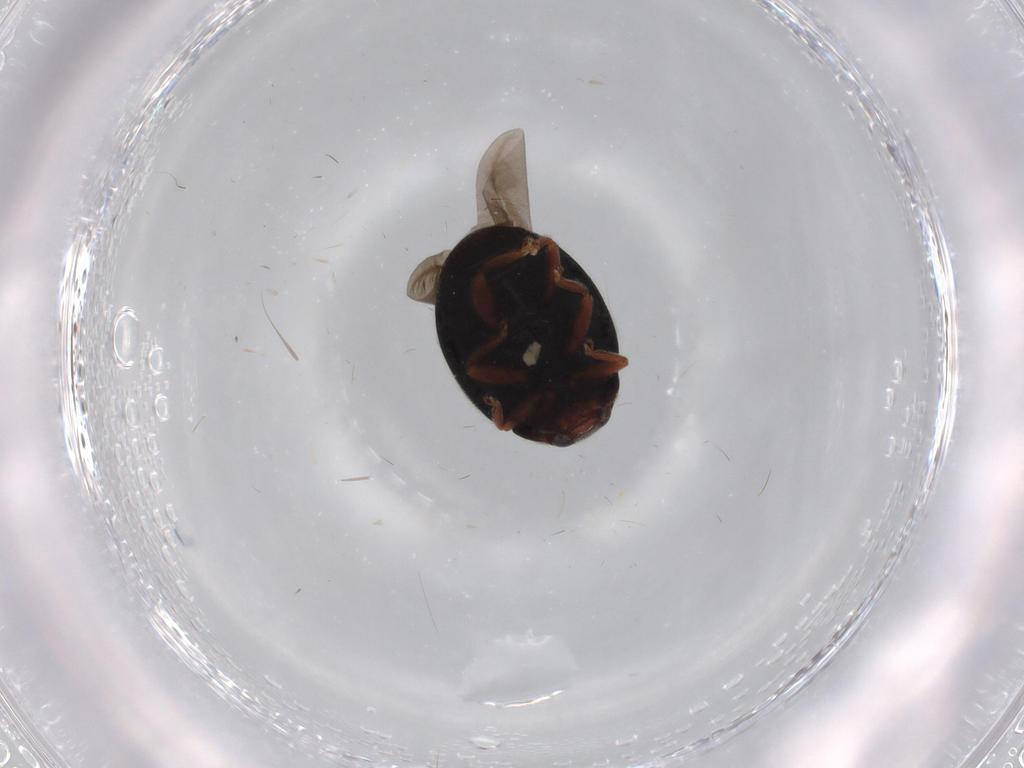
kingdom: Animalia
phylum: Arthropoda
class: Insecta
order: Coleoptera
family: Coccinellidae
